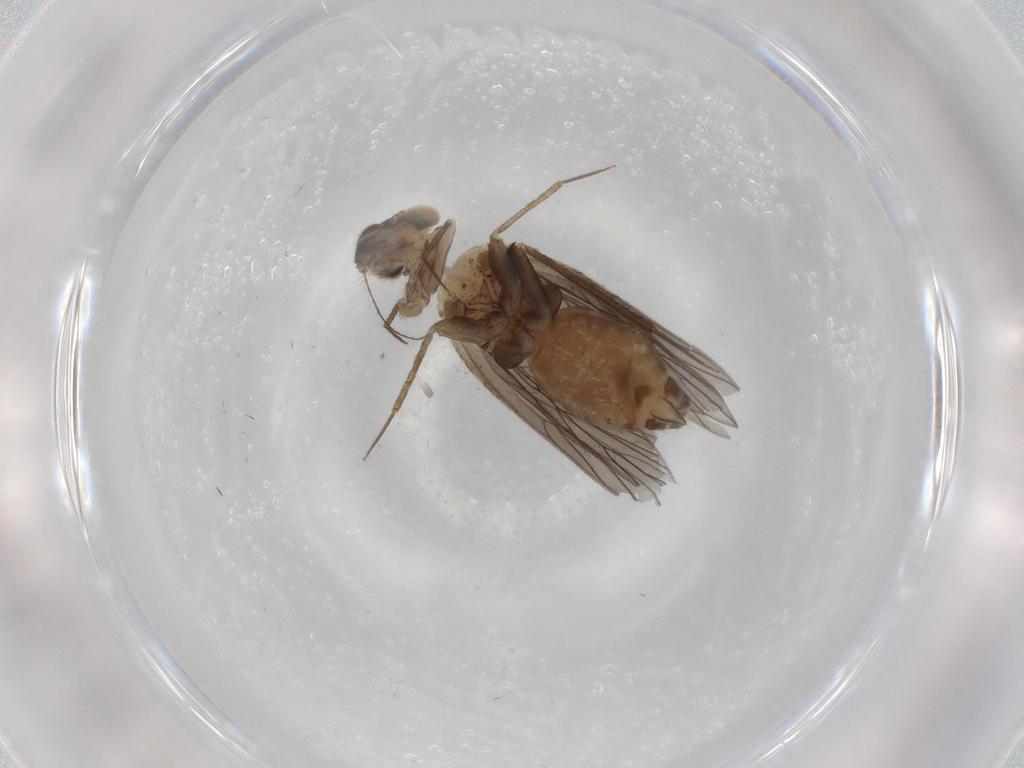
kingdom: Animalia
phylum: Arthropoda
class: Insecta
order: Psocodea
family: Lepidopsocidae
